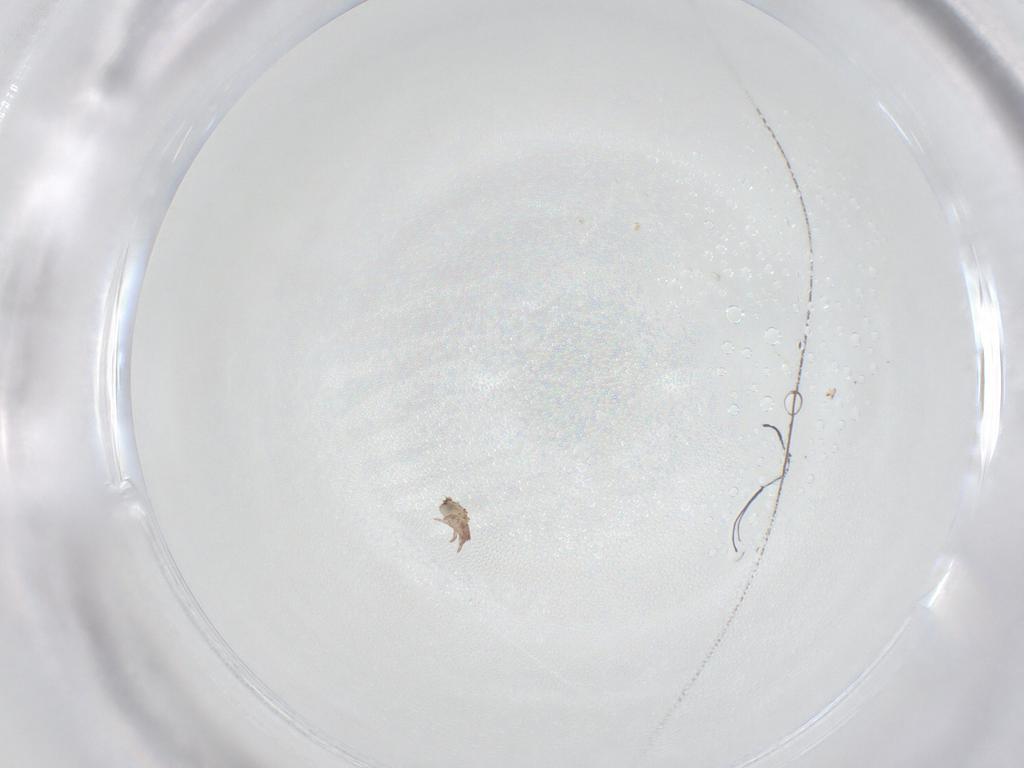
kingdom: Animalia
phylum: Arthropoda
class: Arachnida
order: Sarcoptiformes
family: Crotoniidae
